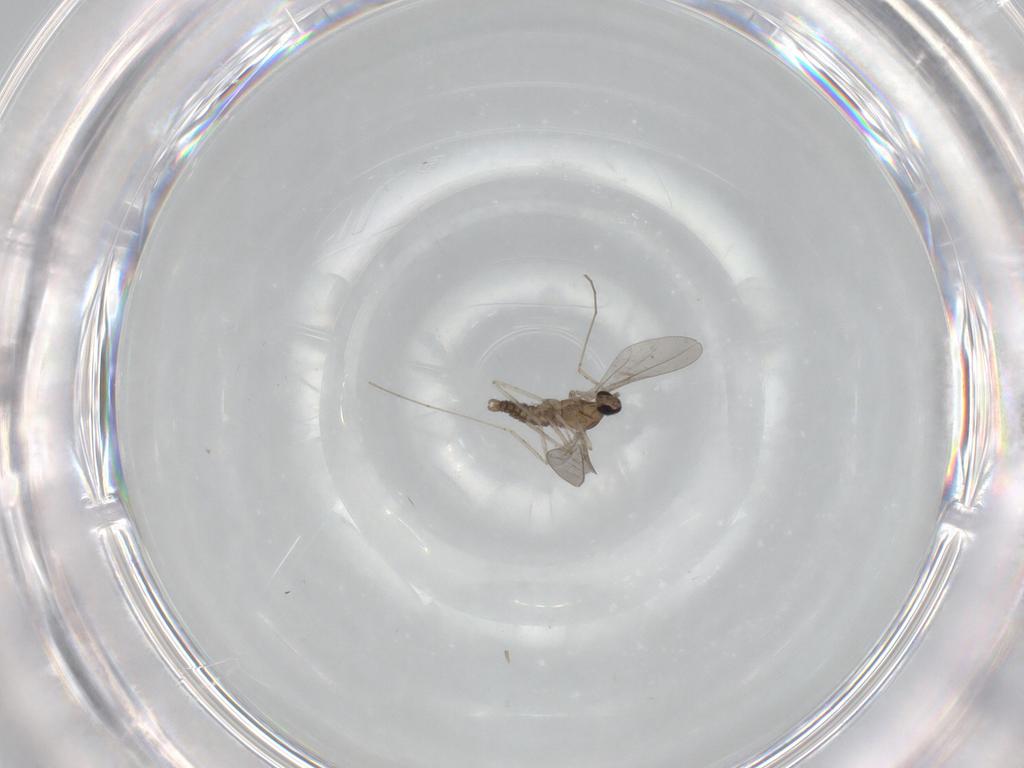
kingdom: Animalia
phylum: Arthropoda
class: Insecta
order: Diptera
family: Cecidomyiidae
